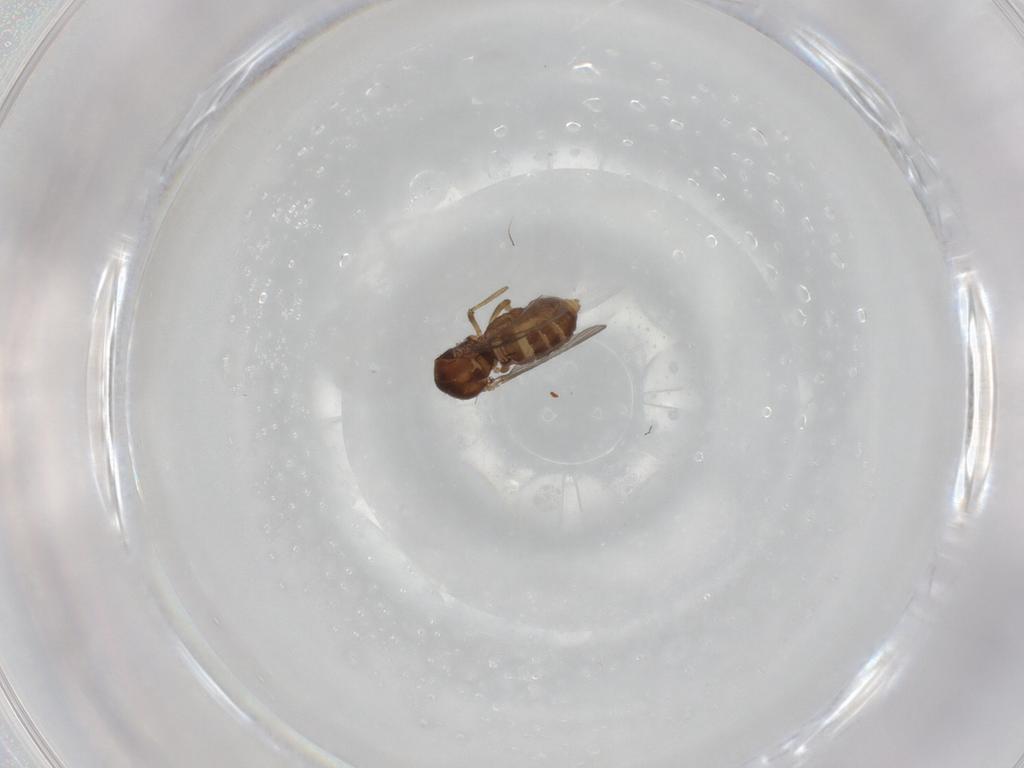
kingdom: Animalia
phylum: Arthropoda
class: Insecta
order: Diptera
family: Ceratopogonidae
